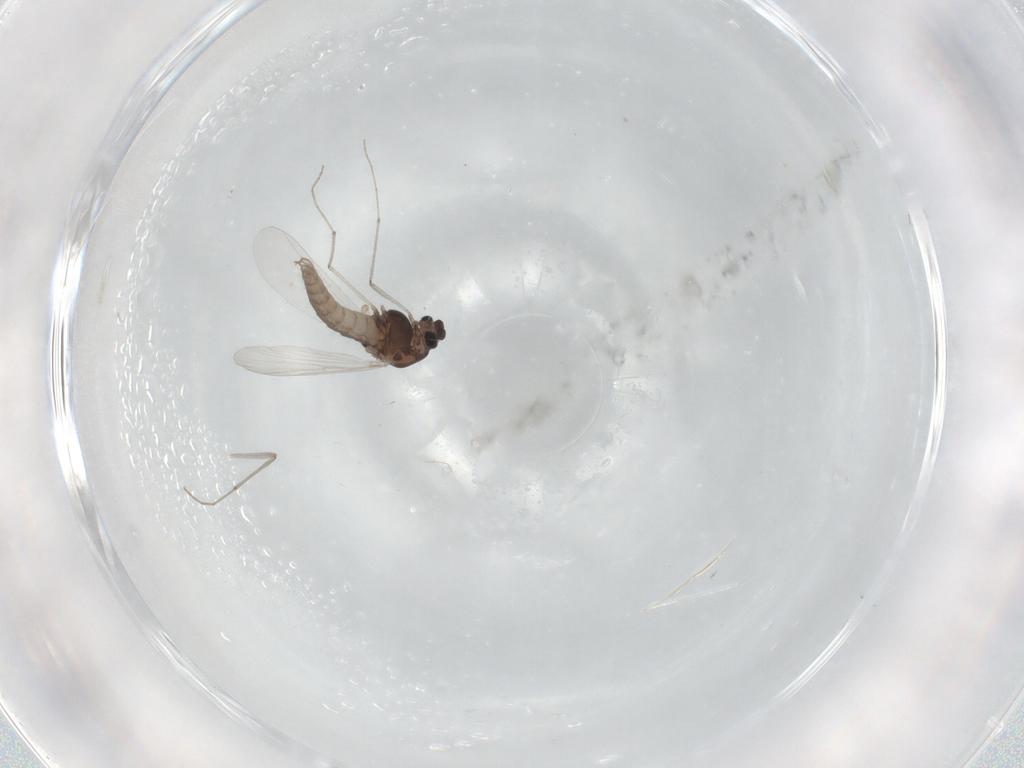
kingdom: Animalia
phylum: Arthropoda
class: Insecta
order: Diptera
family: Chironomidae
